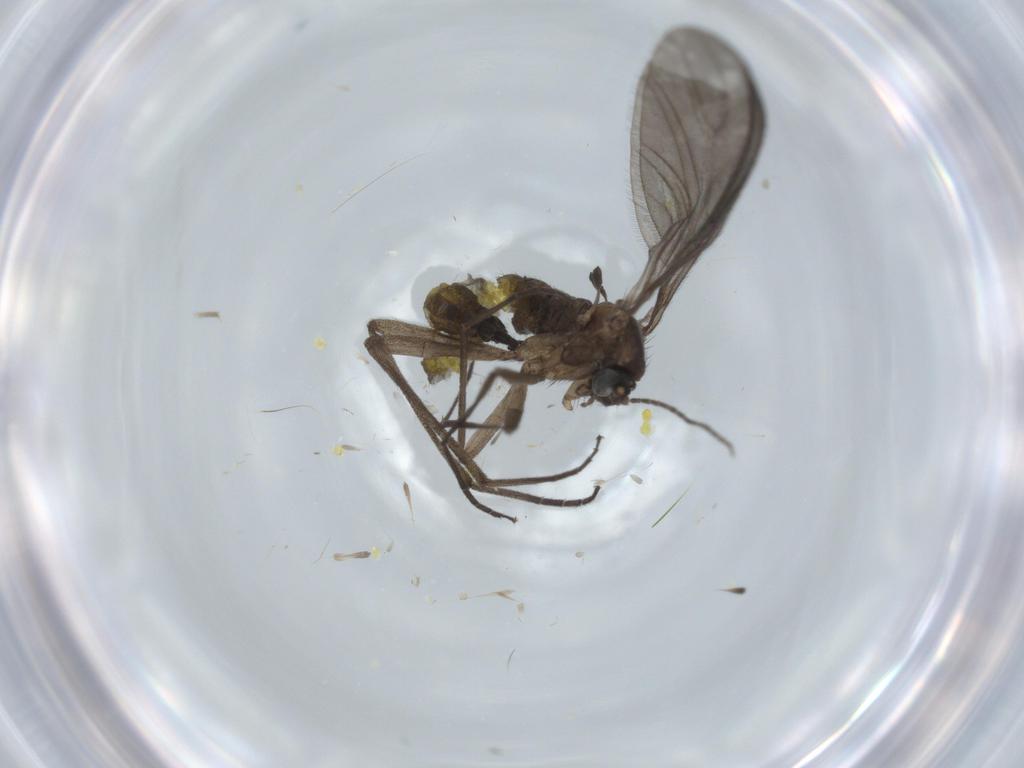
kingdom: Animalia
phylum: Arthropoda
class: Insecta
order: Diptera
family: Sciaridae
